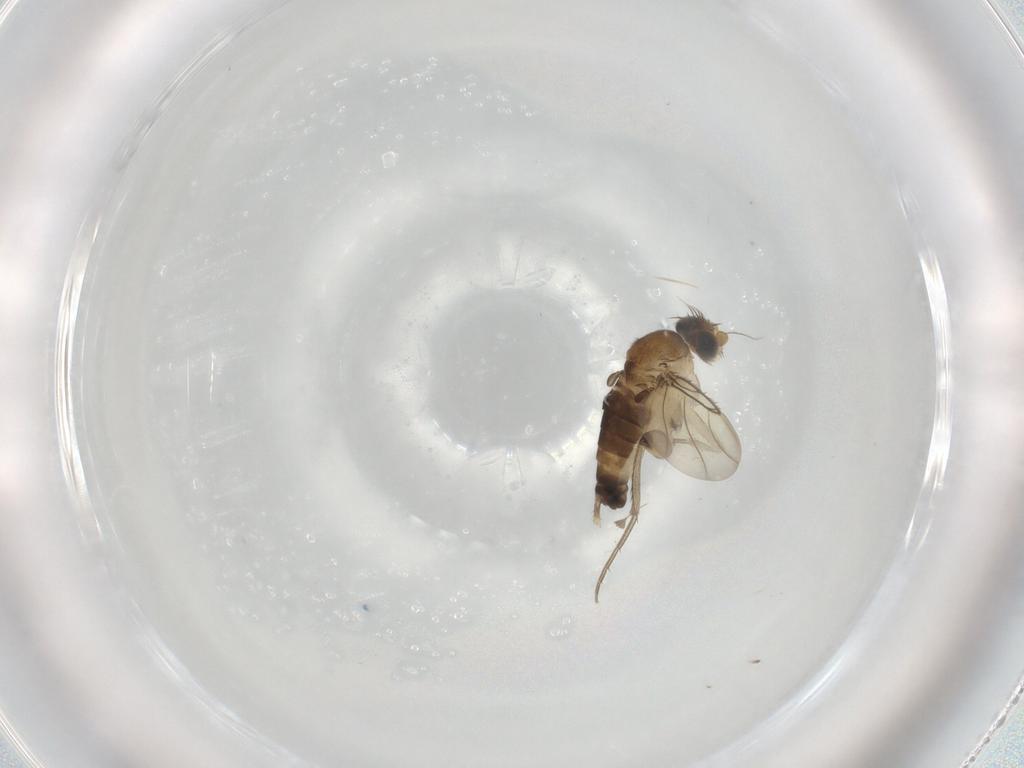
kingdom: Animalia
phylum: Arthropoda
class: Insecta
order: Diptera
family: Phoridae
